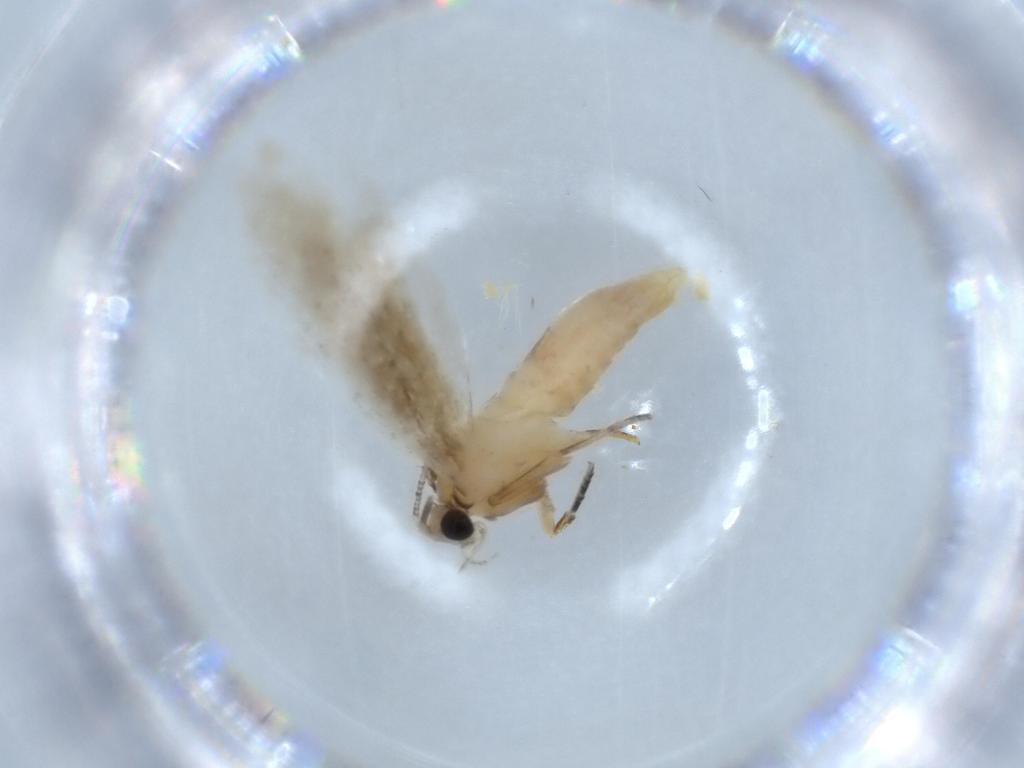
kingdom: Animalia
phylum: Arthropoda
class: Insecta
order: Lepidoptera
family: Tineidae
